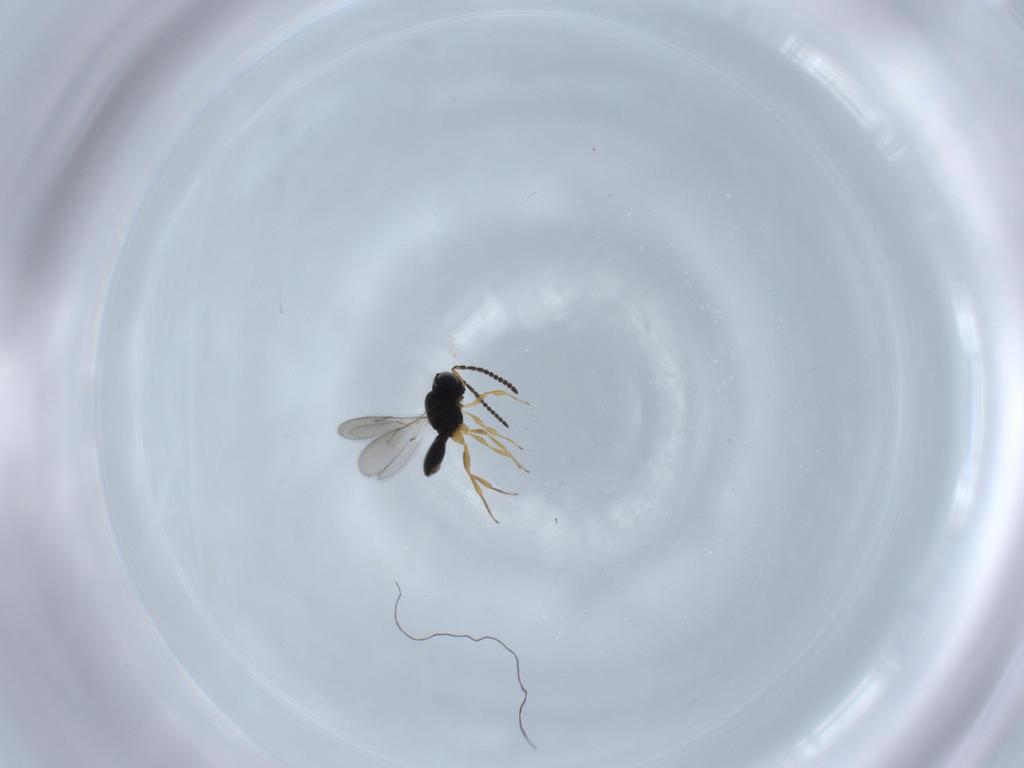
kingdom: Animalia
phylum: Arthropoda
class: Insecta
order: Hymenoptera
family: Scelionidae
